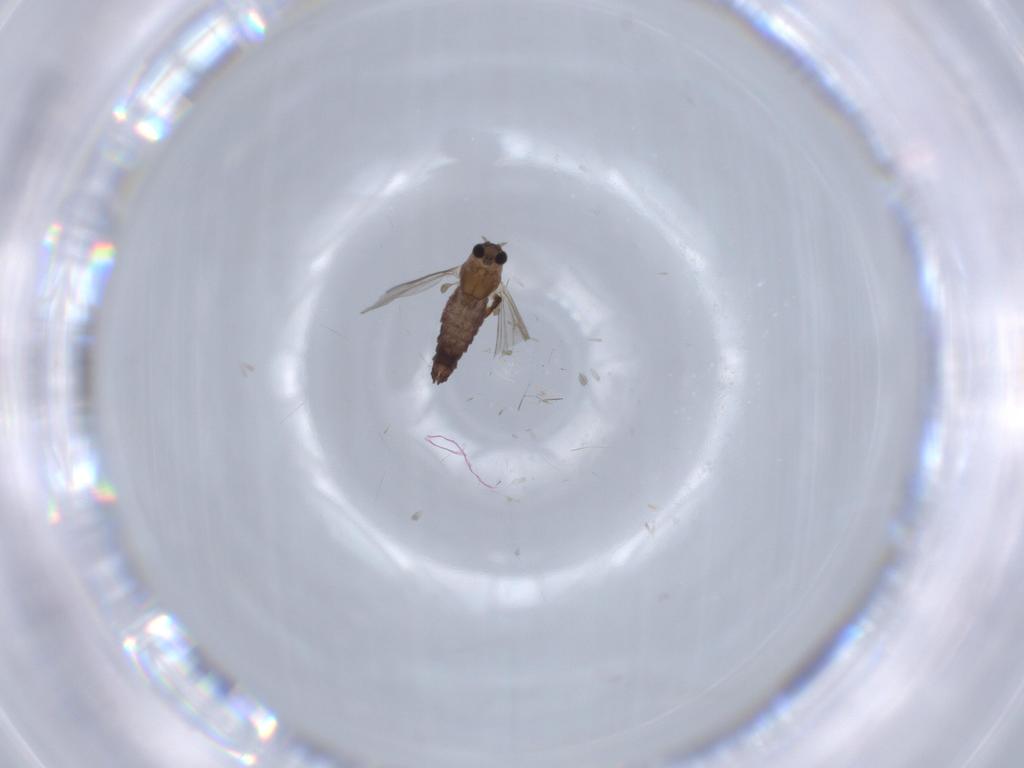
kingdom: Animalia
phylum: Arthropoda
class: Insecta
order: Diptera
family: Chironomidae
